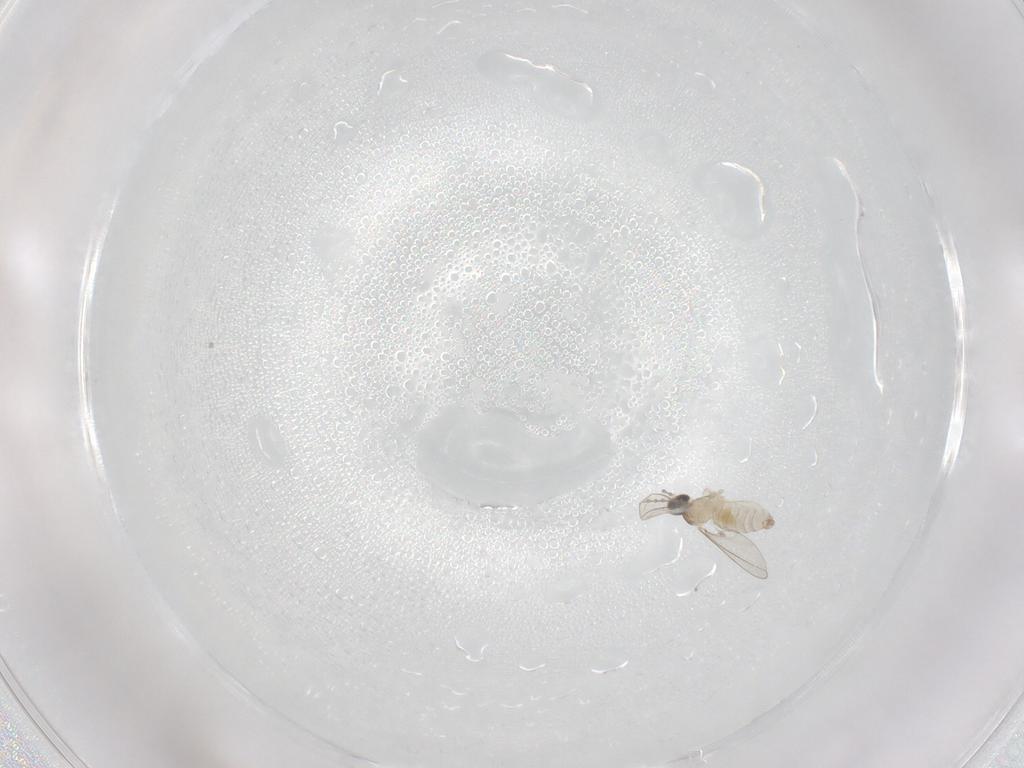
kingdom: Animalia
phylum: Arthropoda
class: Insecta
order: Diptera
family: Cecidomyiidae
